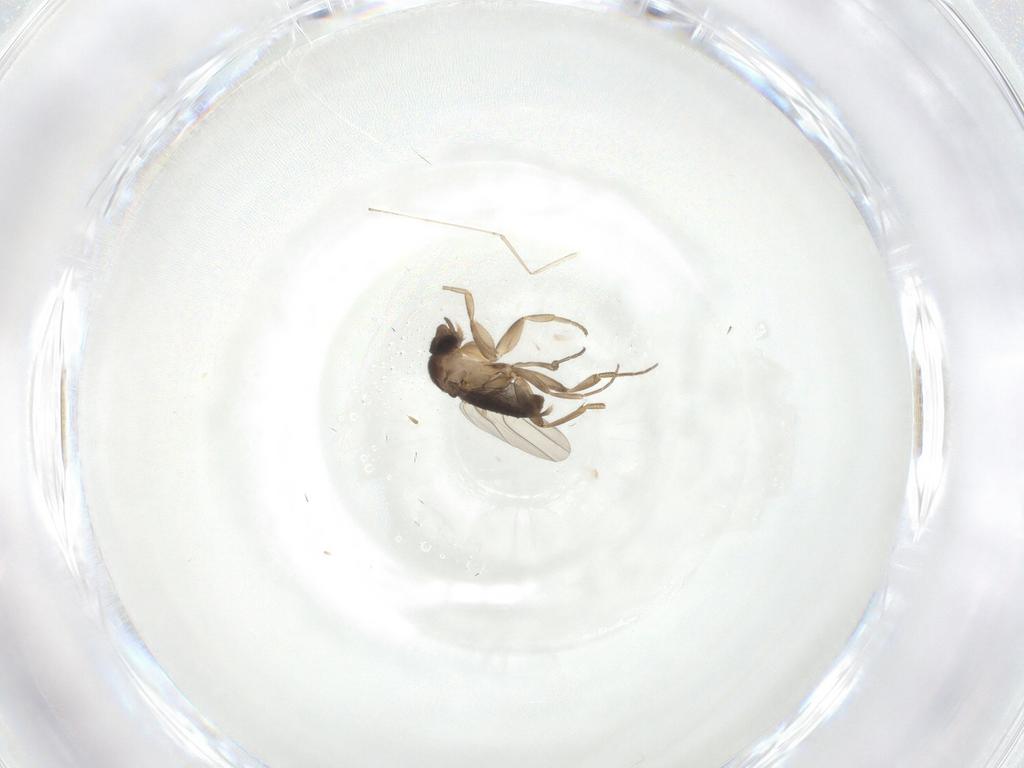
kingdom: Animalia
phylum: Arthropoda
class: Insecta
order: Diptera
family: Phoridae
